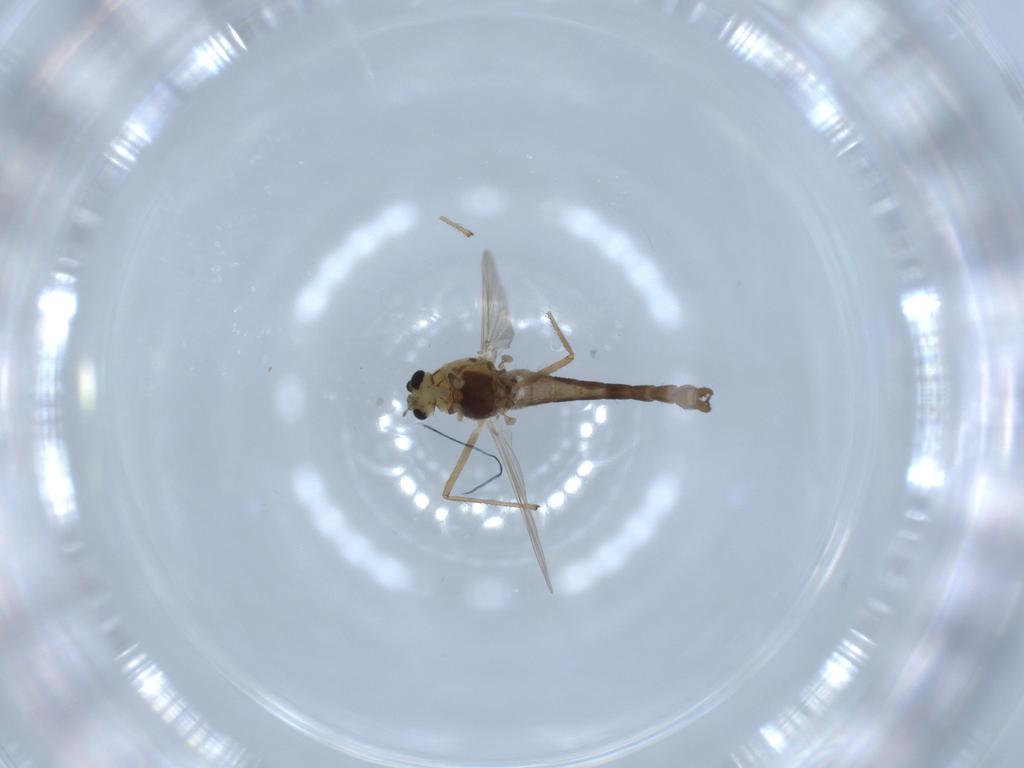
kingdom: Animalia
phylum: Arthropoda
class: Insecta
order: Diptera
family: Chironomidae
